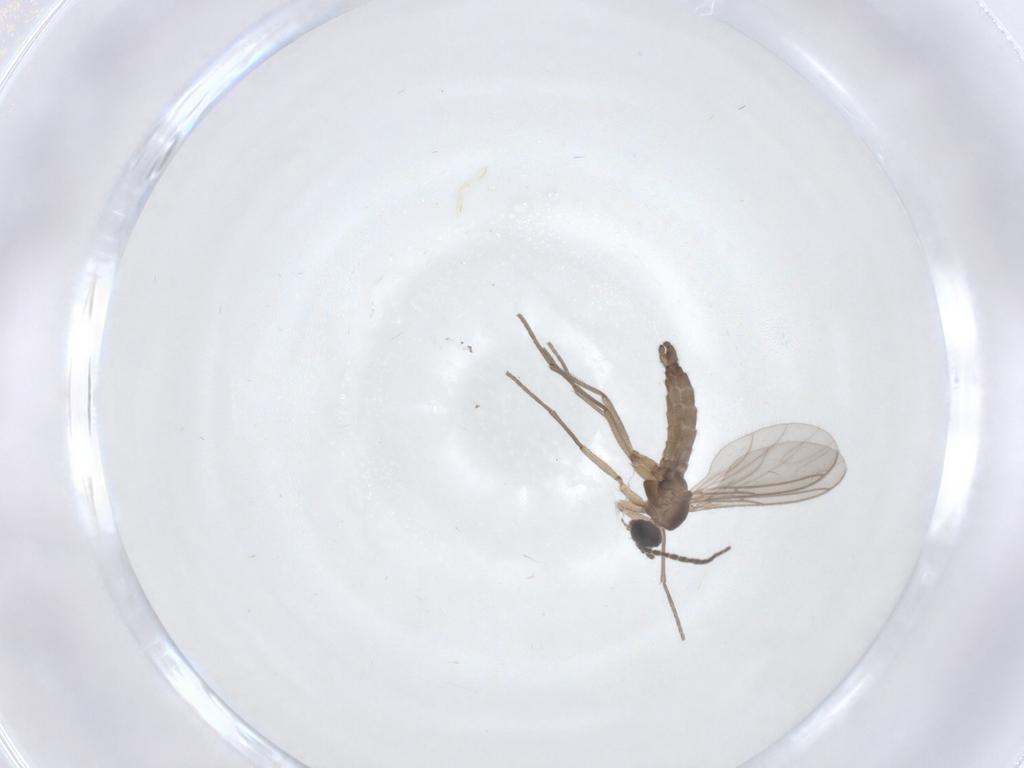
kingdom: Animalia
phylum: Arthropoda
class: Insecta
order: Diptera
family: Sciaridae
